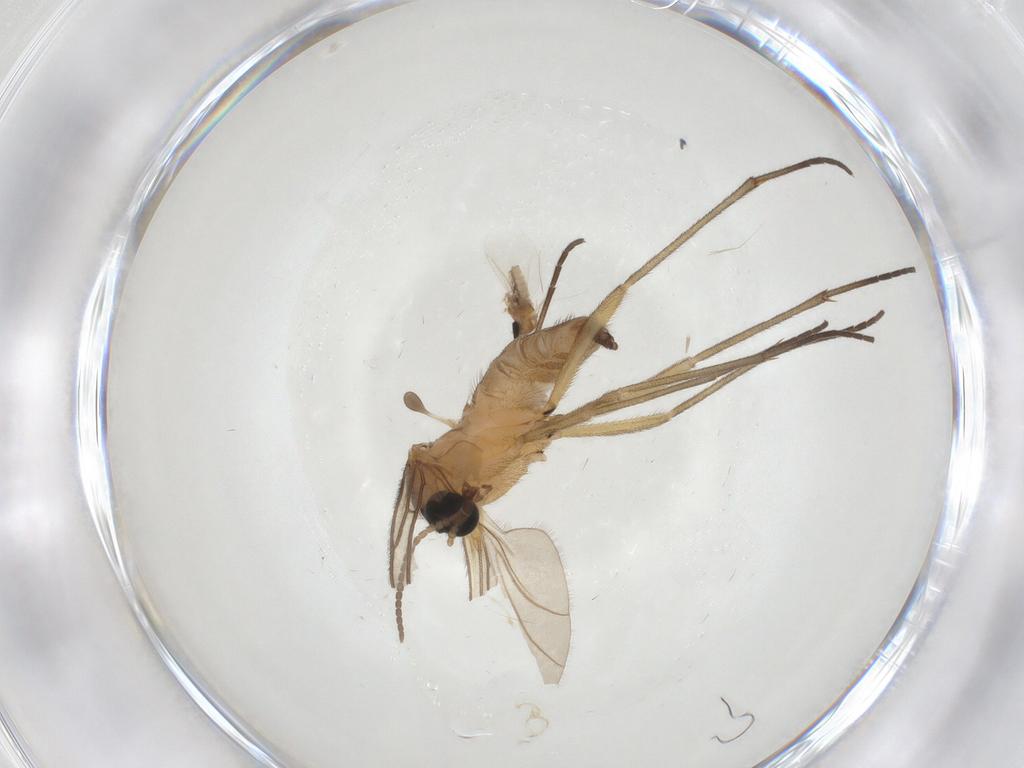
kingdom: Animalia
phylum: Arthropoda
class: Insecta
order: Diptera
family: Sciaridae
